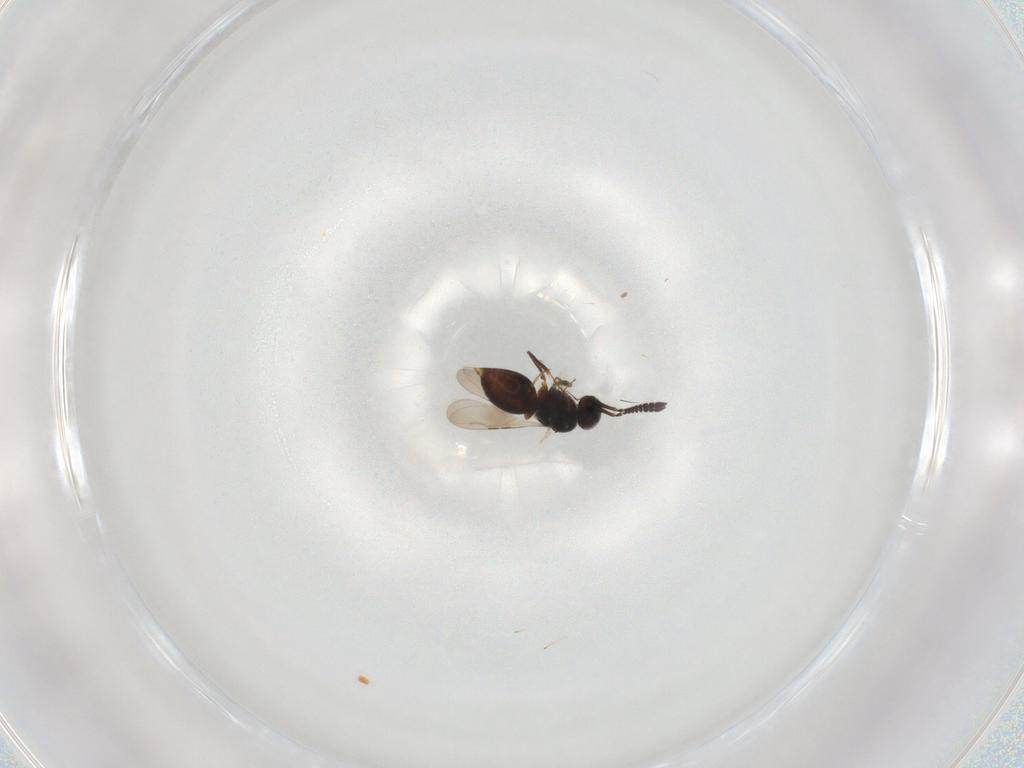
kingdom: Animalia
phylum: Arthropoda
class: Insecta
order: Hymenoptera
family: Ceraphronidae
